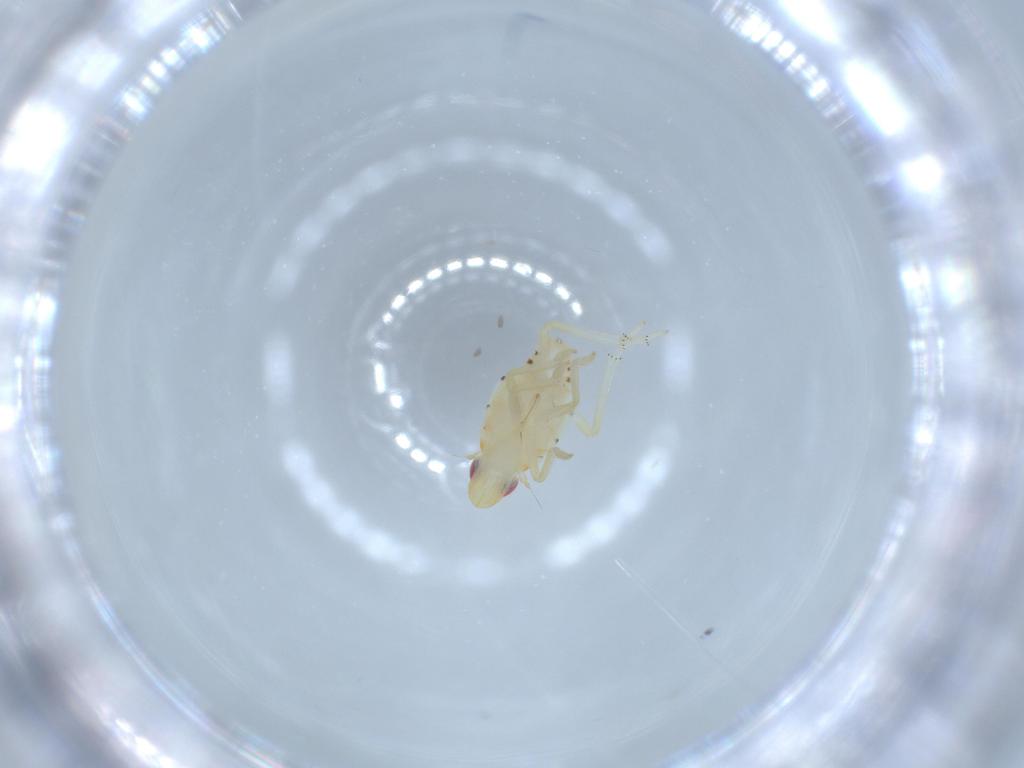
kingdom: Animalia
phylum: Arthropoda
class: Insecta
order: Hemiptera
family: Tropiduchidae
